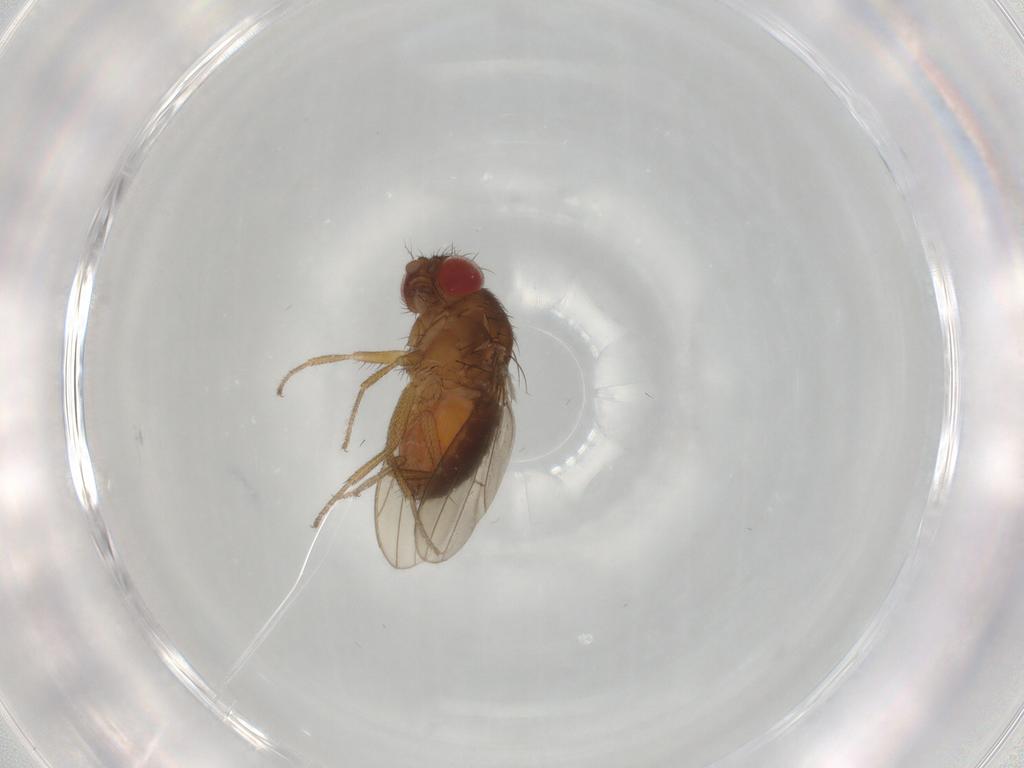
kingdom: Animalia
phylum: Arthropoda
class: Insecta
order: Diptera
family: Drosophilidae
